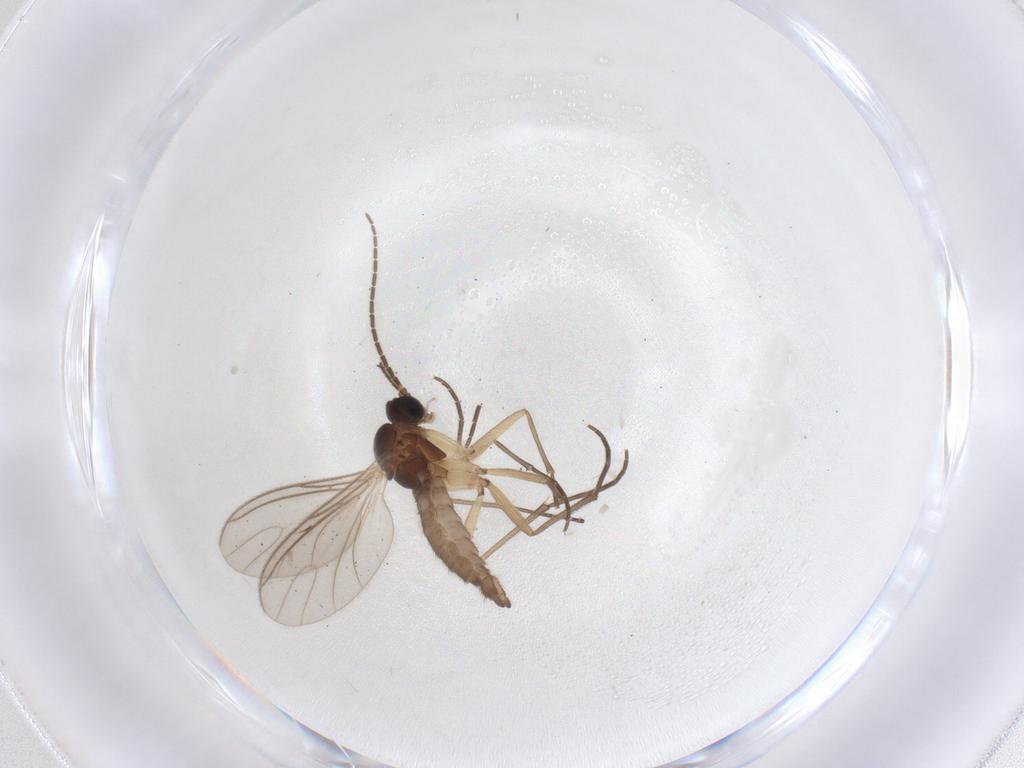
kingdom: Animalia
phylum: Arthropoda
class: Insecta
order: Diptera
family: Sciaridae
